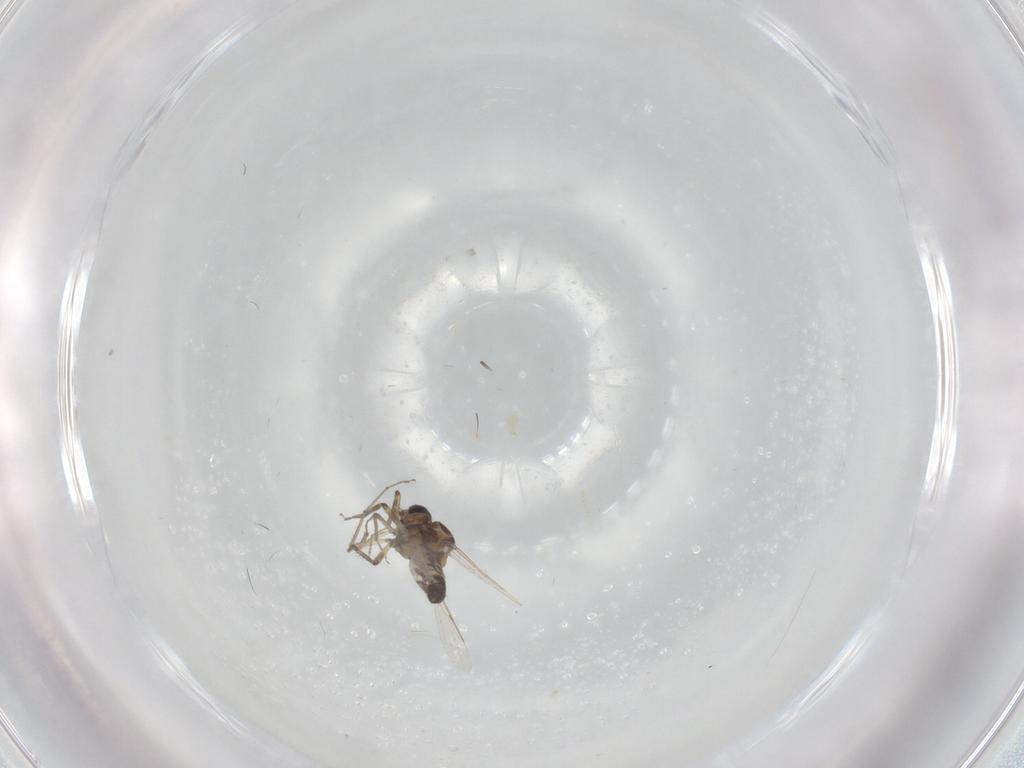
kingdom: Animalia
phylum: Arthropoda
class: Insecta
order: Diptera
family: Cecidomyiidae
